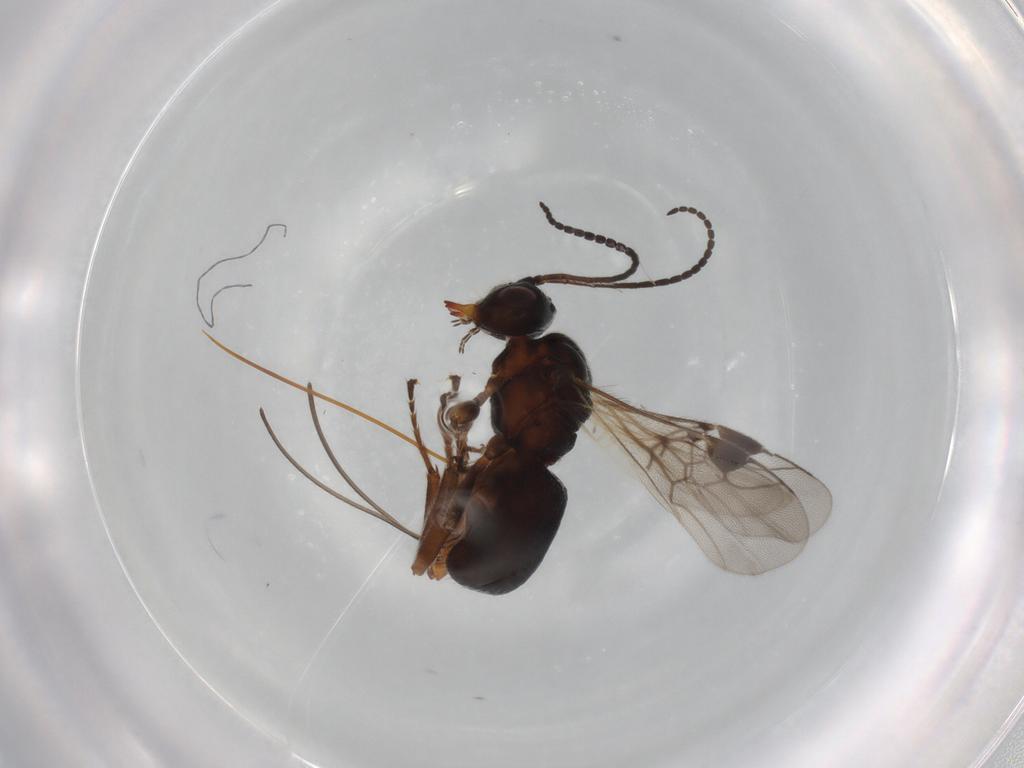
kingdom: Animalia
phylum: Arthropoda
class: Insecta
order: Hymenoptera
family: Braconidae
